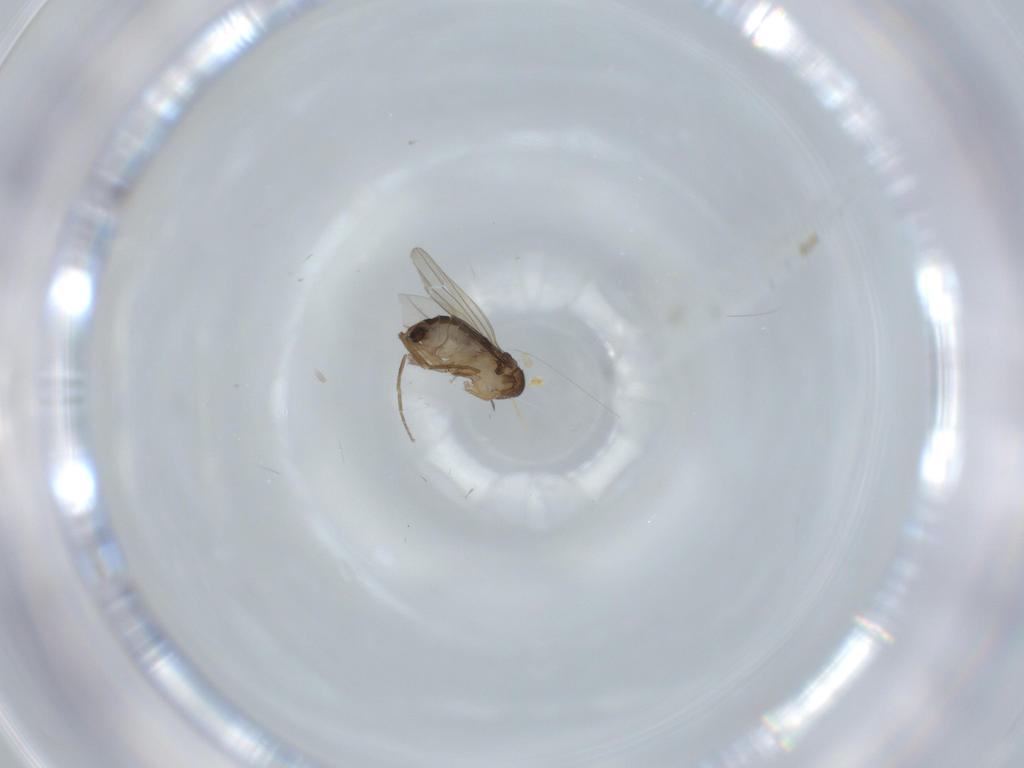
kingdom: Animalia
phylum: Arthropoda
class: Insecta
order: Diptera
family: Phoridae
